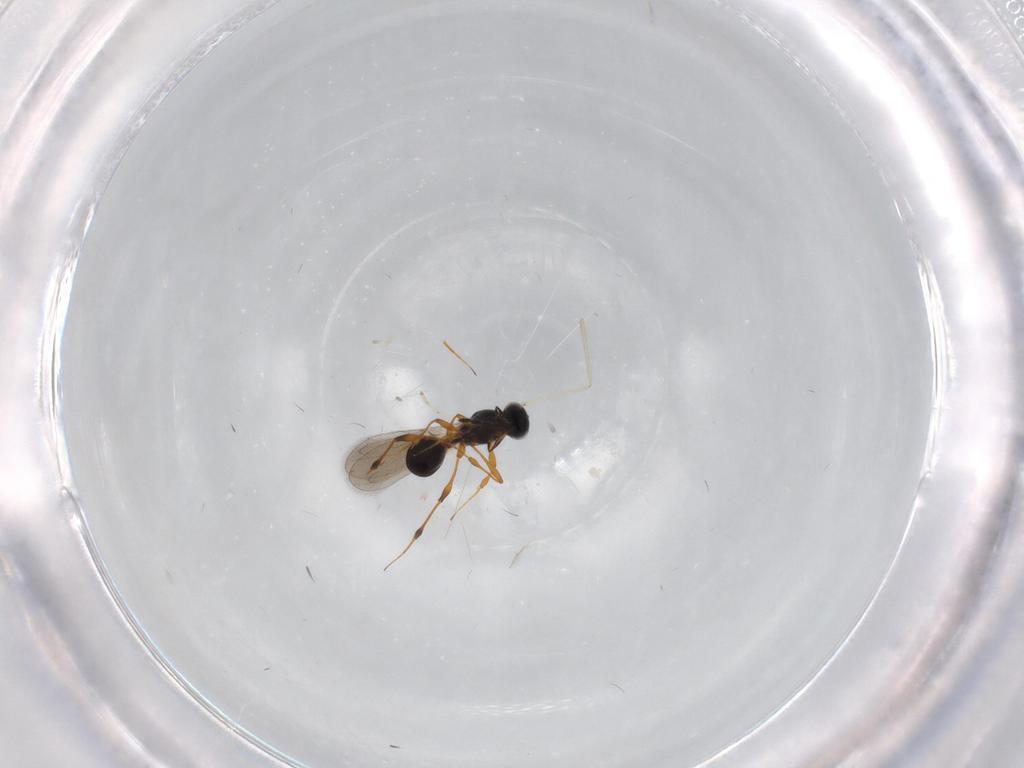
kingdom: Animalia
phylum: Arthropoda
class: Insecta
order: Hymenoptera
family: Platygastridae
